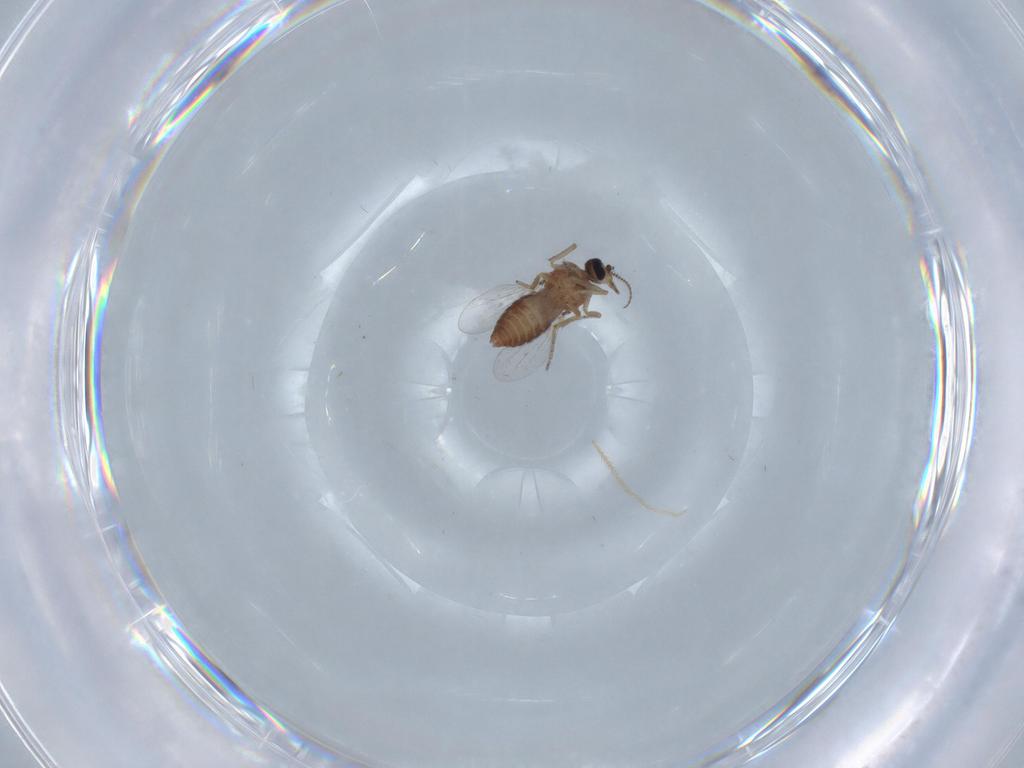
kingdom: Animalia
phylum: Arthropoda
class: Insecta
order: Diptera
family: Ceratopogonidae
